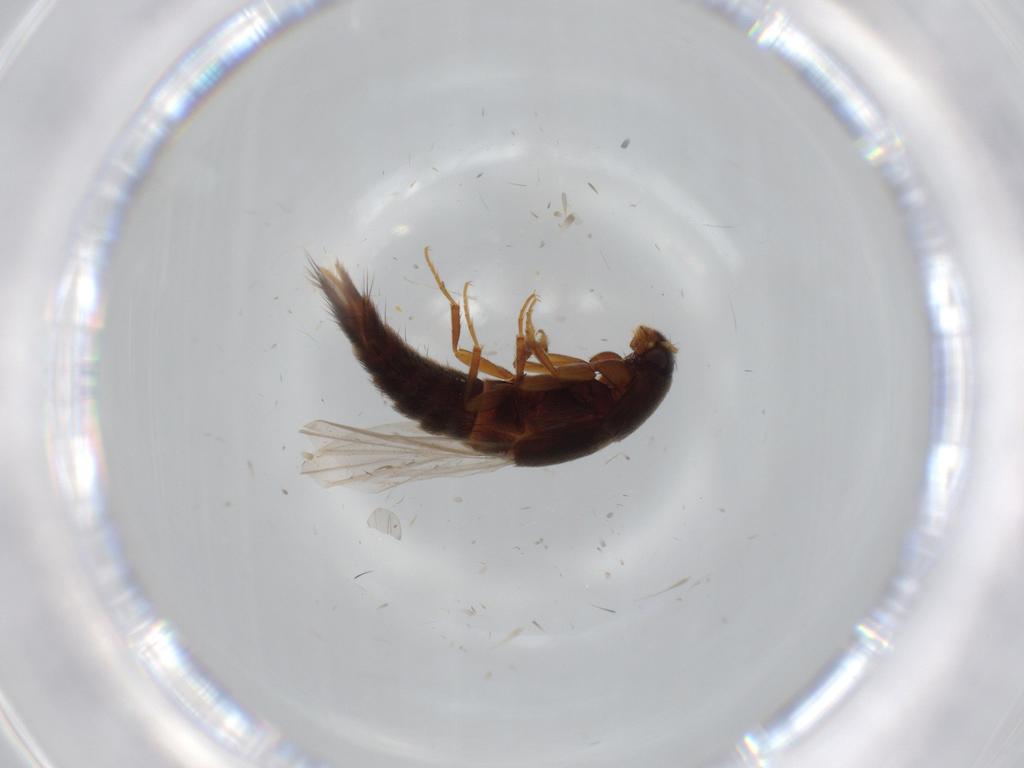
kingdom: Animalia
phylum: Arthropoda
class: Insecta
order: Coleoptera
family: Staphylinidae
